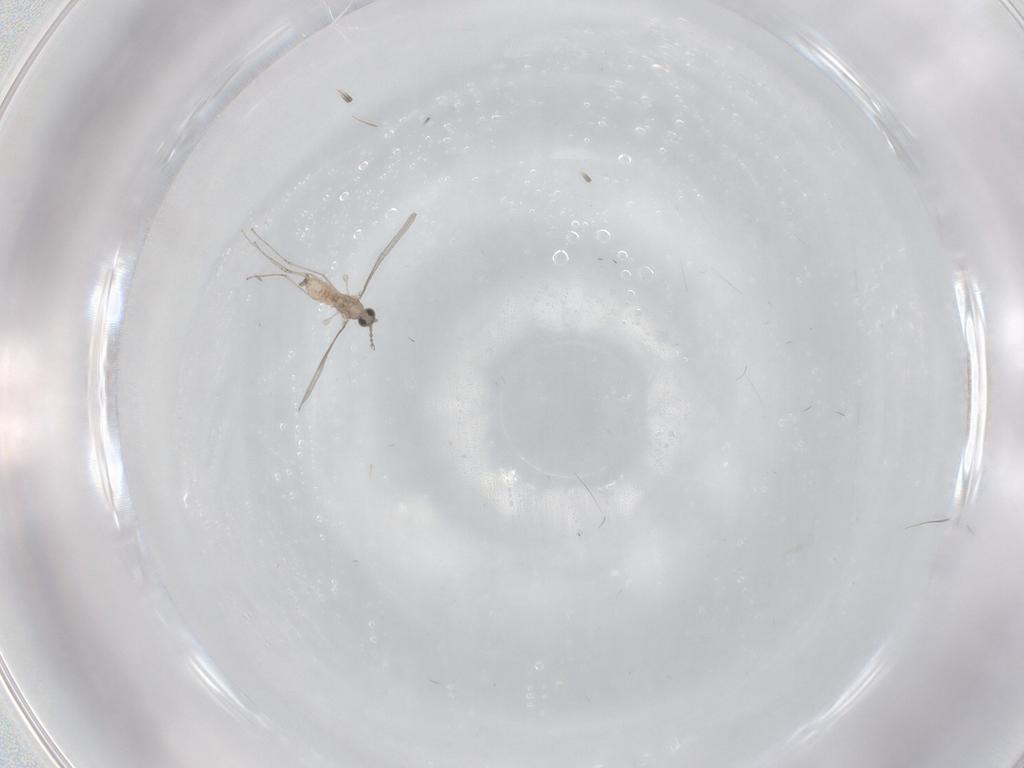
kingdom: Animalia
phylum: Arthropoda
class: Insecta
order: Diptera
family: Cecidomyiidae
